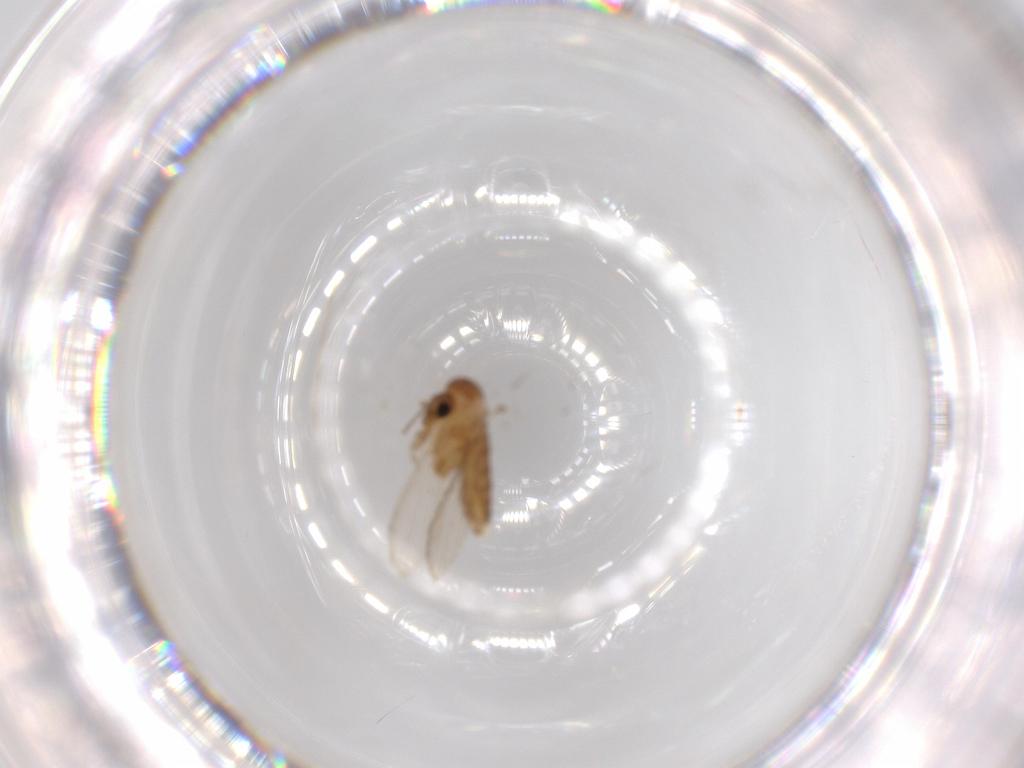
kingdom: Animalia
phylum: Arthropoda
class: Insecta
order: Diptera
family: Psychodidae
